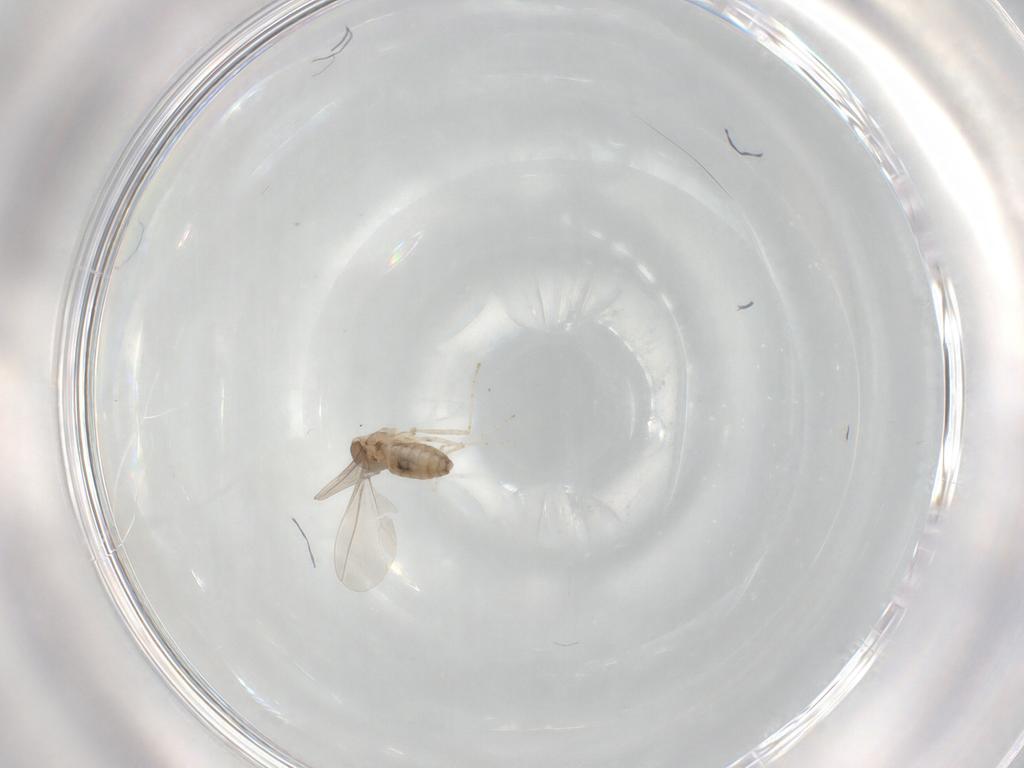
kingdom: Animalia
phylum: Arthropoda
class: Insecta
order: Diptera
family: Cecidomyiidae
